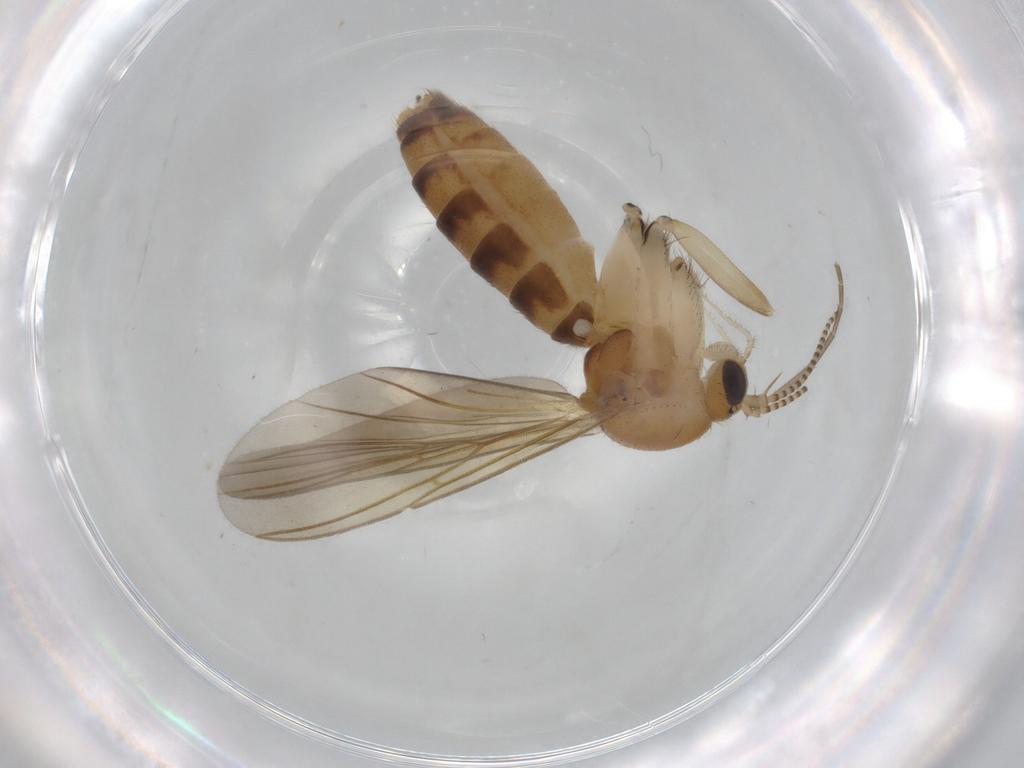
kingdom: Animalia
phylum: Arthropoda
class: Insecta
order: Diptera
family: Mycetophilidae
